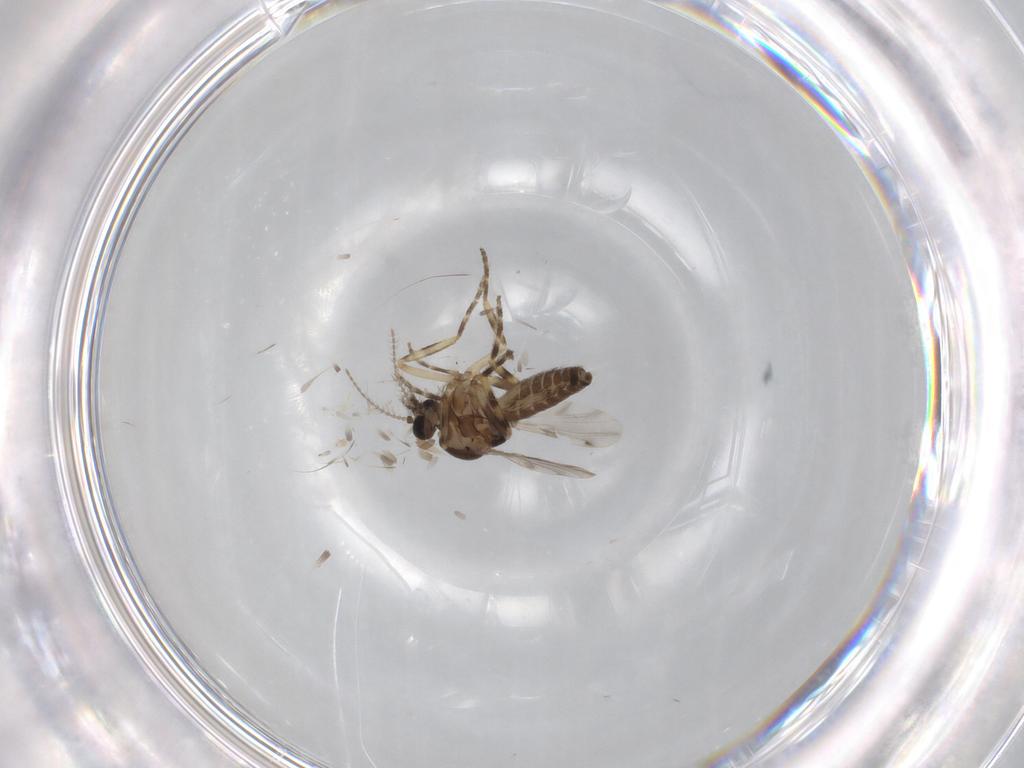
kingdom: Animalia
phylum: Arthropoda
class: Insecta
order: Diptera
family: Ceratopogonidae
